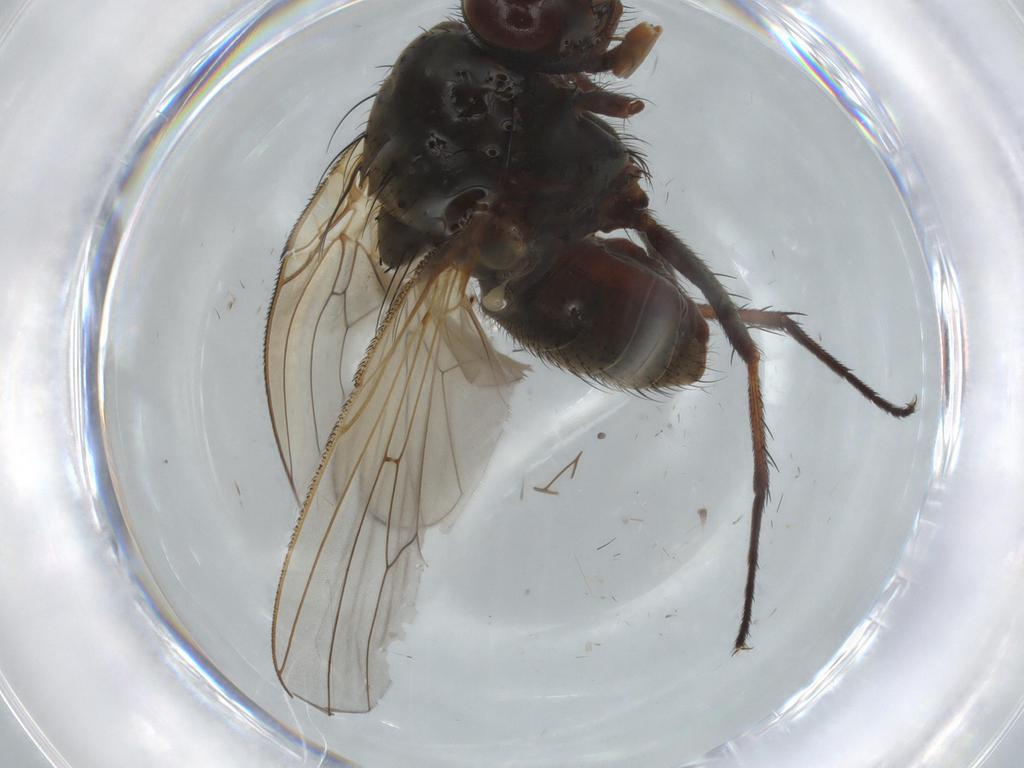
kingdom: Animalia
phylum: Arthropoda
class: Insecta
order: Diptera
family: Anthomyiidae
